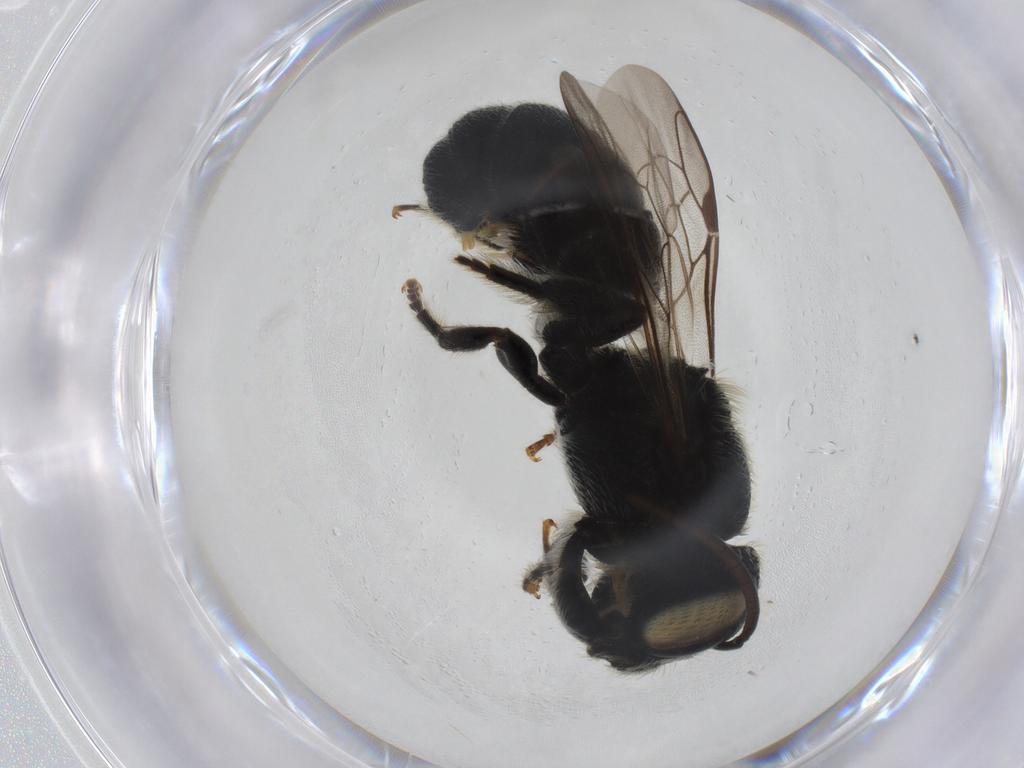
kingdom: Animalia
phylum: Arthropoda
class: Insecta
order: Hymenoptera
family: Megachilidae
